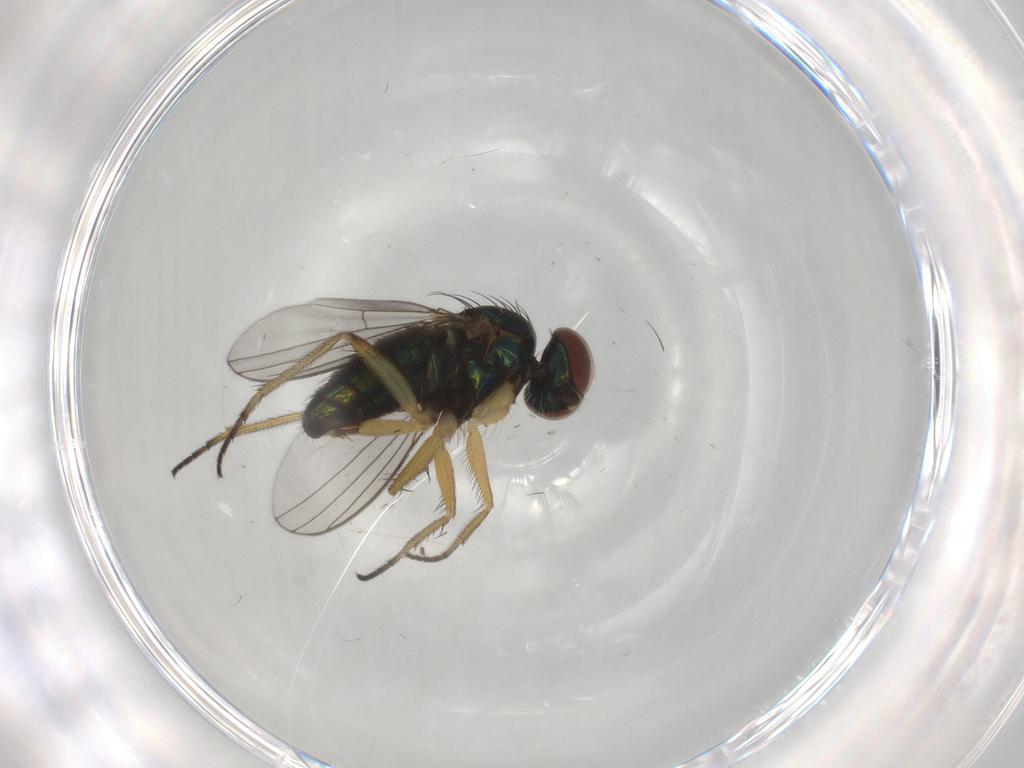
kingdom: Animalia
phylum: Arthropoda
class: Insecta
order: Diptera
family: Dolichopodidae
